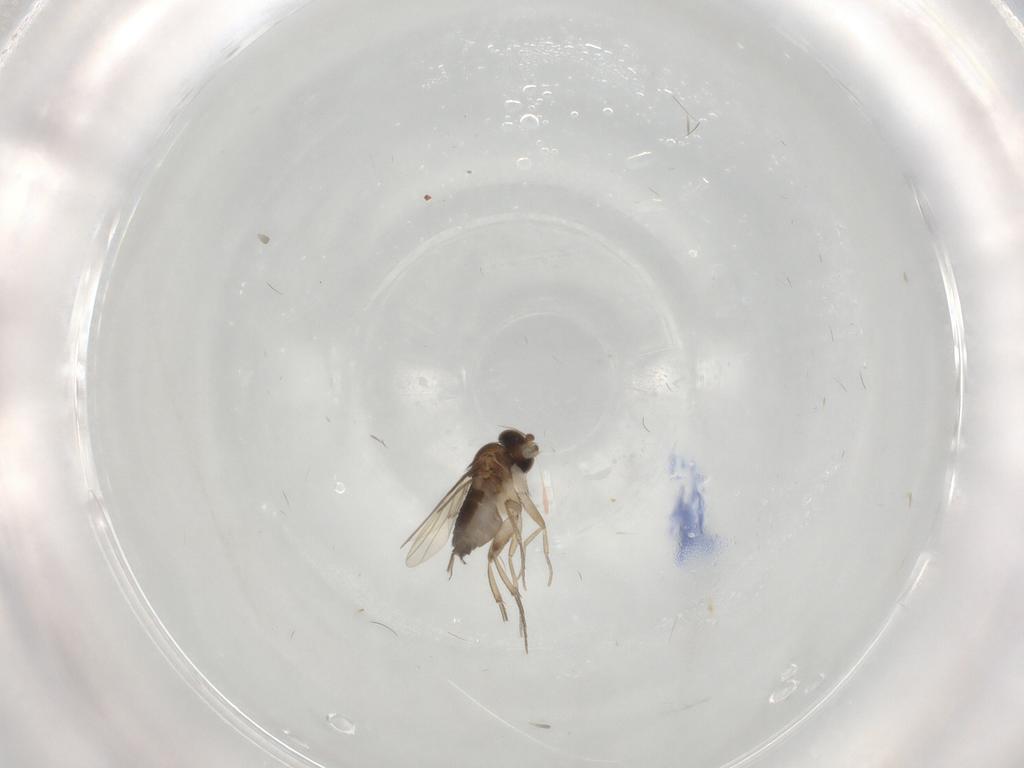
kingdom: Animalia
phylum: Arthropoda
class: Insecta
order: Diptera
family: Phoridae
